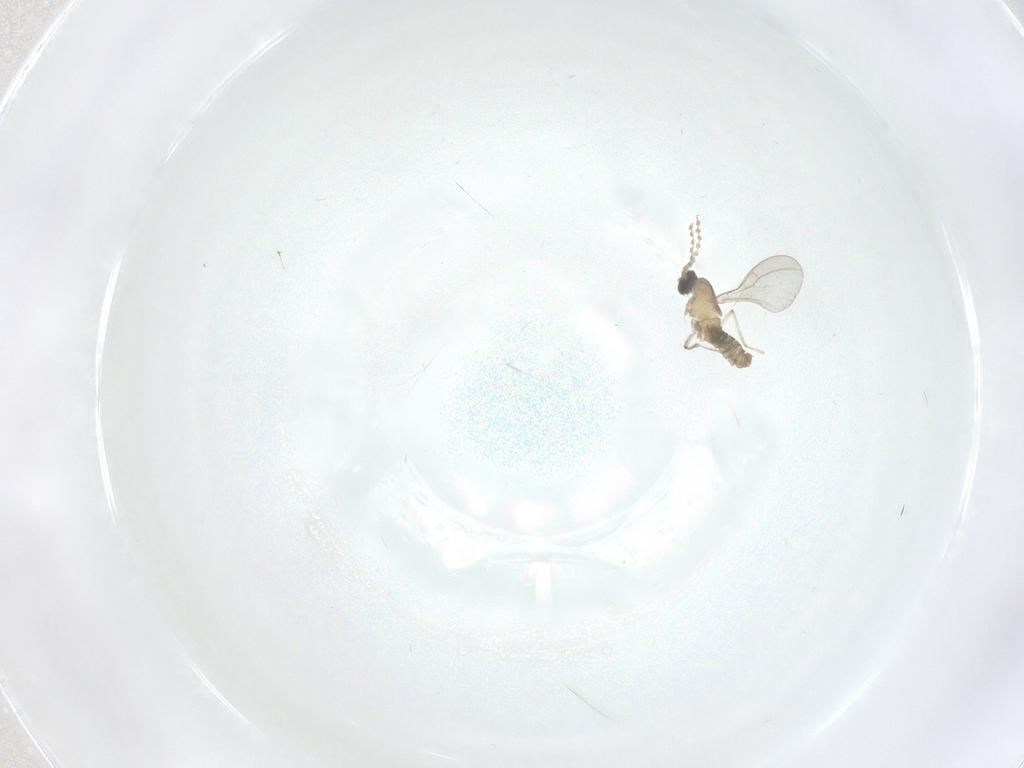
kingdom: Animalia
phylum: Arthropoda
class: Insecta
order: Diptera
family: Cecidomyiidae
